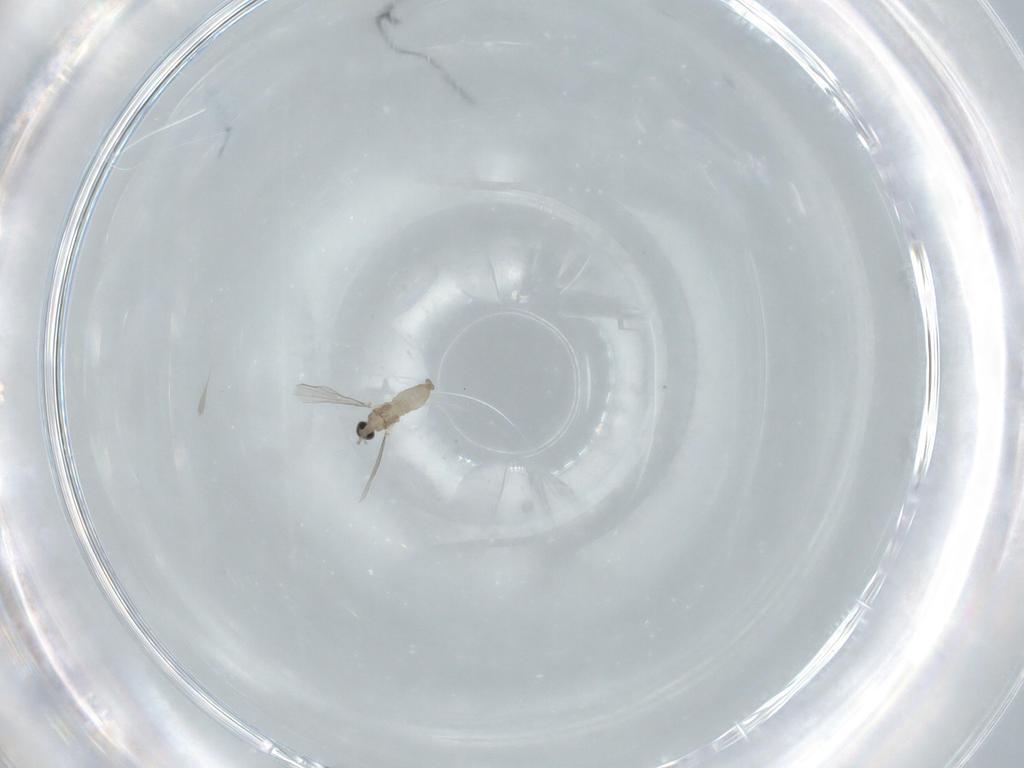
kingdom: Animalia
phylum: Arthropoda
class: Insecta
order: Diptera
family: Cecidomyiidae
